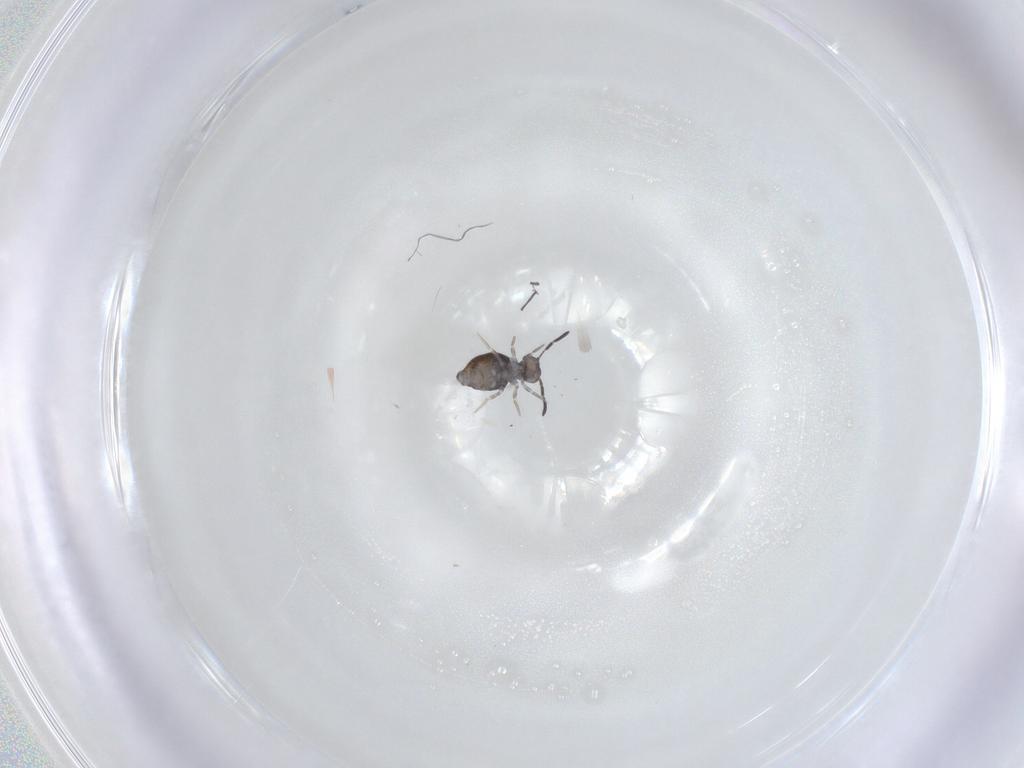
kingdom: Animalia
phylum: Arthropoda
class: Collembola
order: Symphypleona
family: Katiannidae
